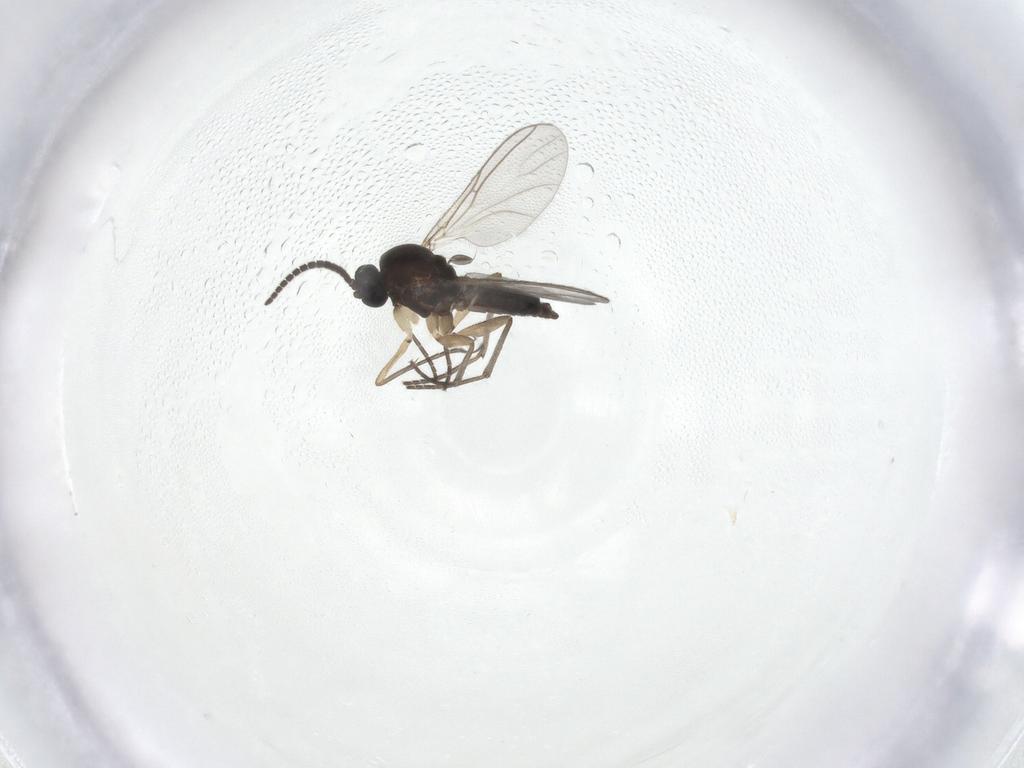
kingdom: Animalia
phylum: Arthropoda
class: Insecta
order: Diptera
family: Sciaridae
